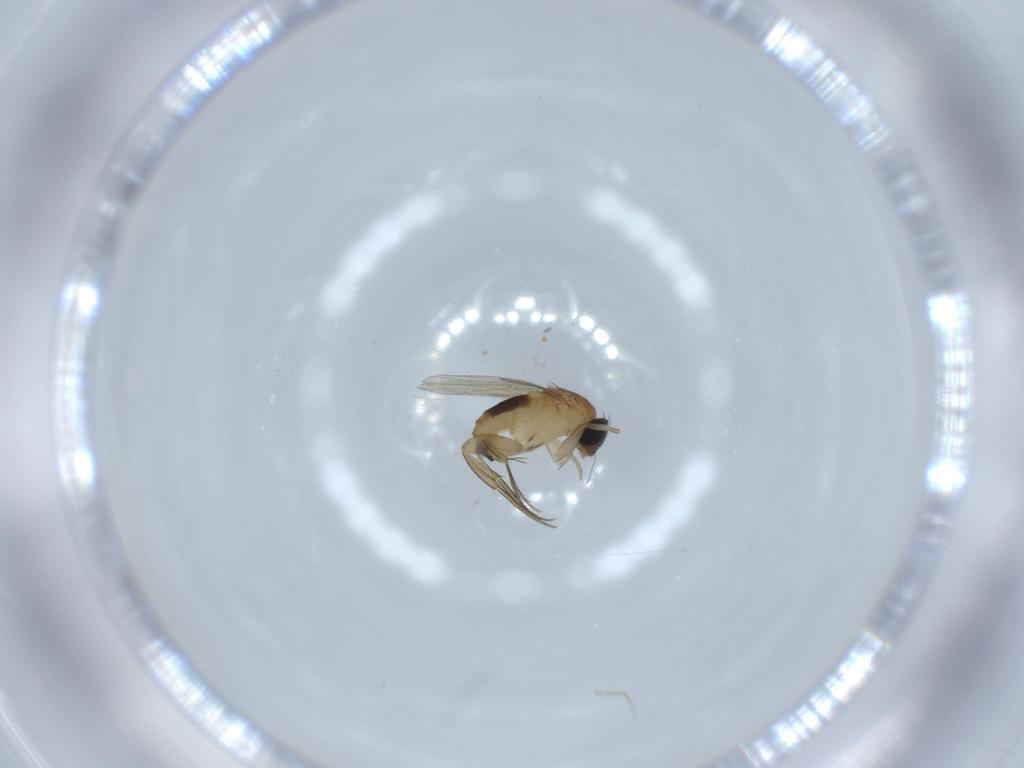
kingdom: Animalia
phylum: Arthropoda
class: Insecta
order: Diptera
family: Phoridae
